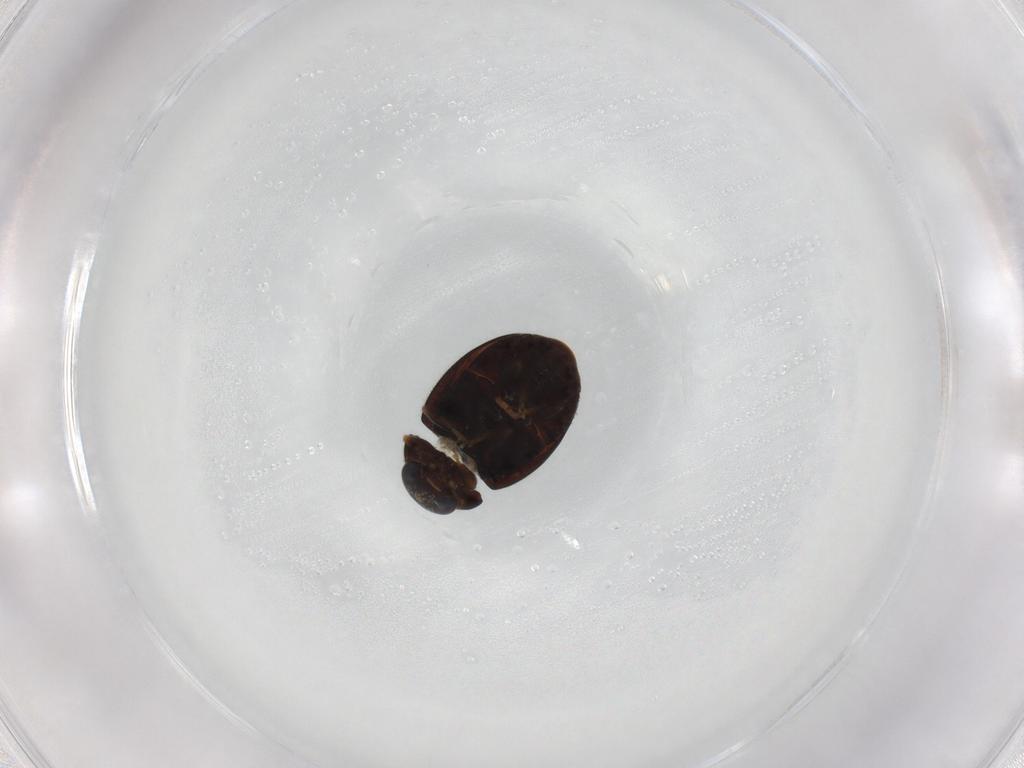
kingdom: Animalia
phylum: Arthropoda
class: Insecta
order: Coleoptera
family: Coccinellidae
